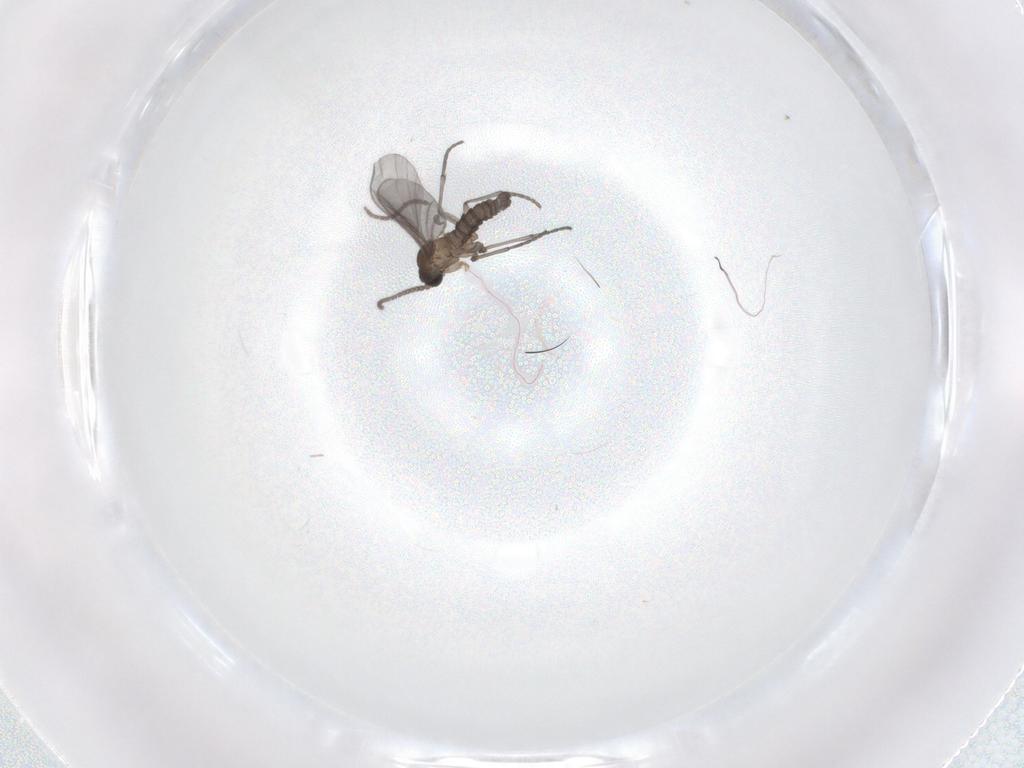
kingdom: Animalia
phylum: Arthropoda
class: Insecta
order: Diptera
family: Sciaridae
